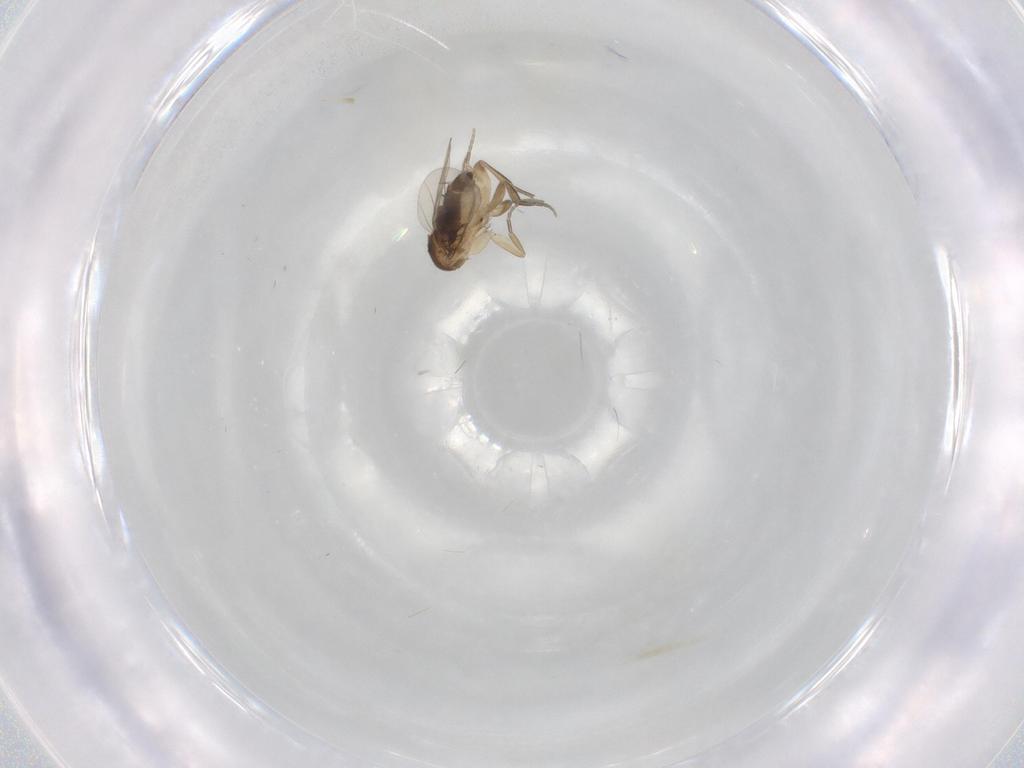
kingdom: Animalia
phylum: Arthropoda
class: Insecta
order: Diptera
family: Phoridae
